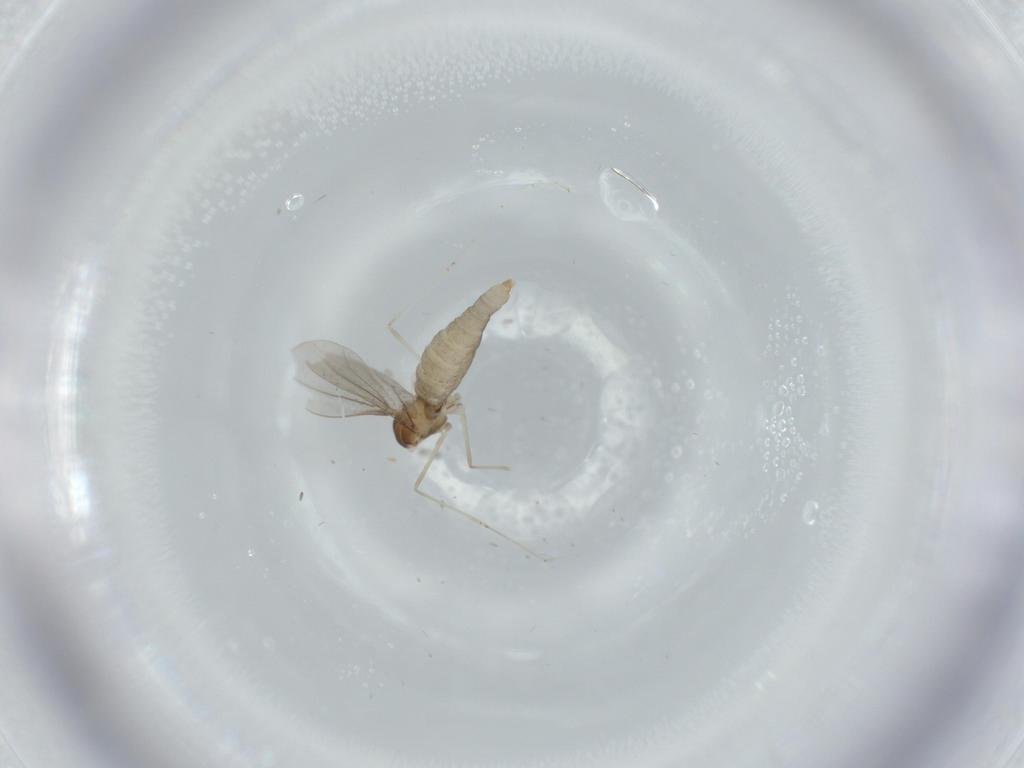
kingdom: Animalia
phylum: Arthropoda
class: Insecta
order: Diptera
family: Cecidomyiidae
